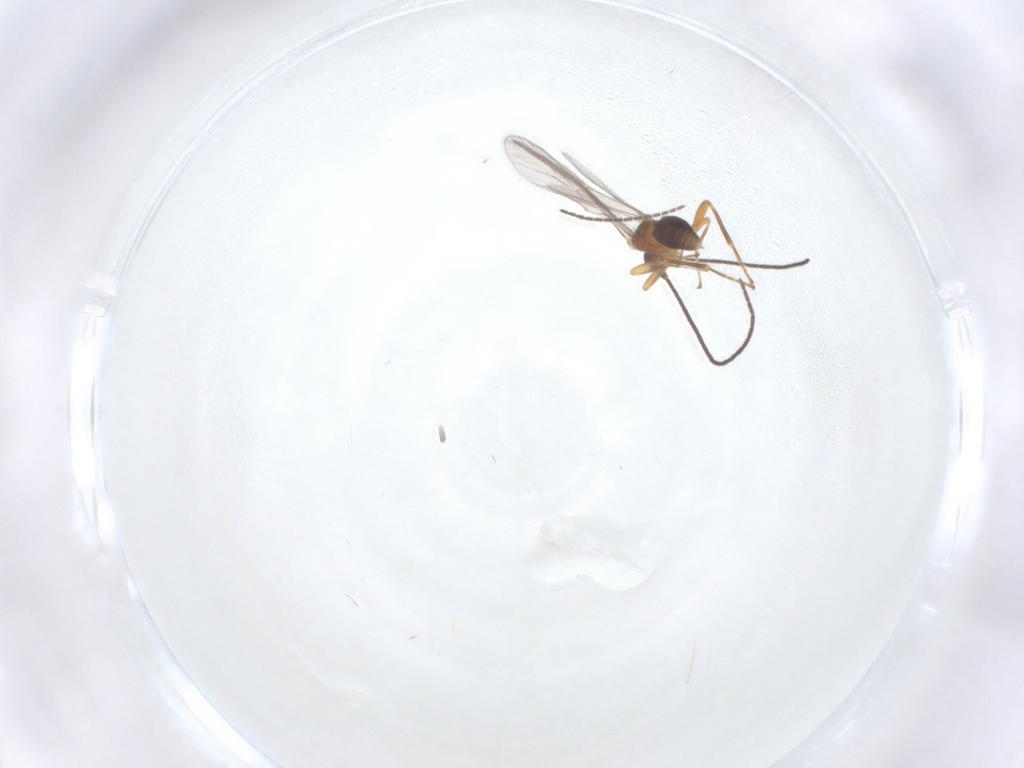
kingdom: Animalia
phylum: Arthropoda
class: Insecta
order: Hymenoptera
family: Braconidae
